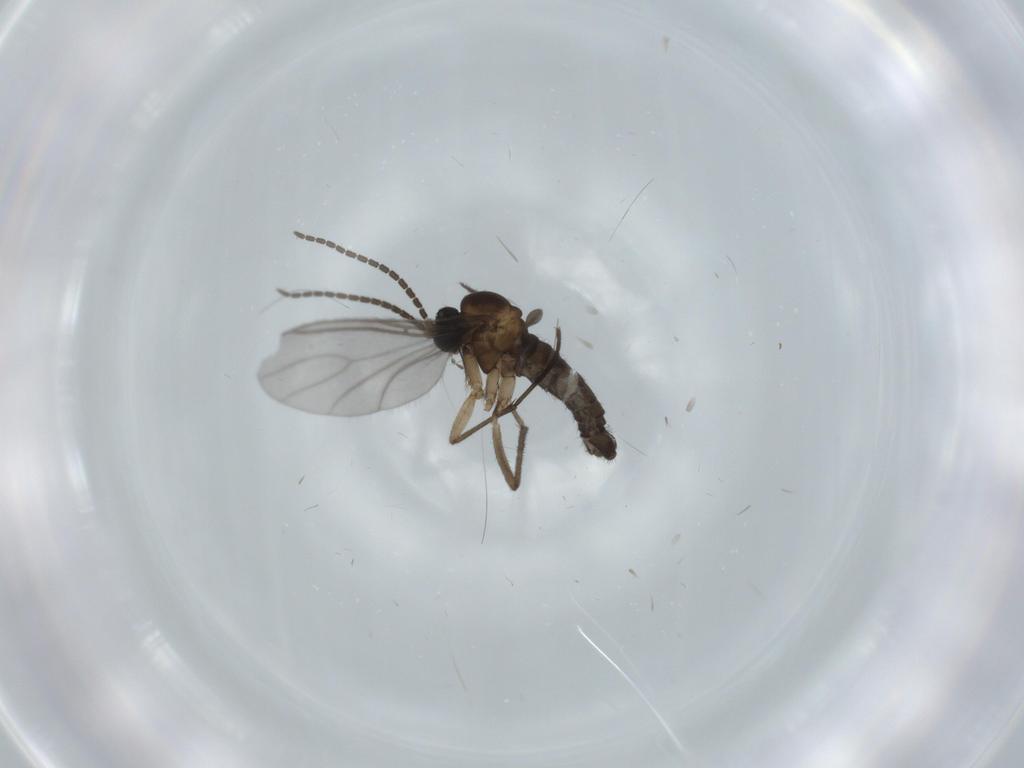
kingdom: Animalia
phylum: Arthropoda
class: Insecta
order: Diptera
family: Sciaridae
